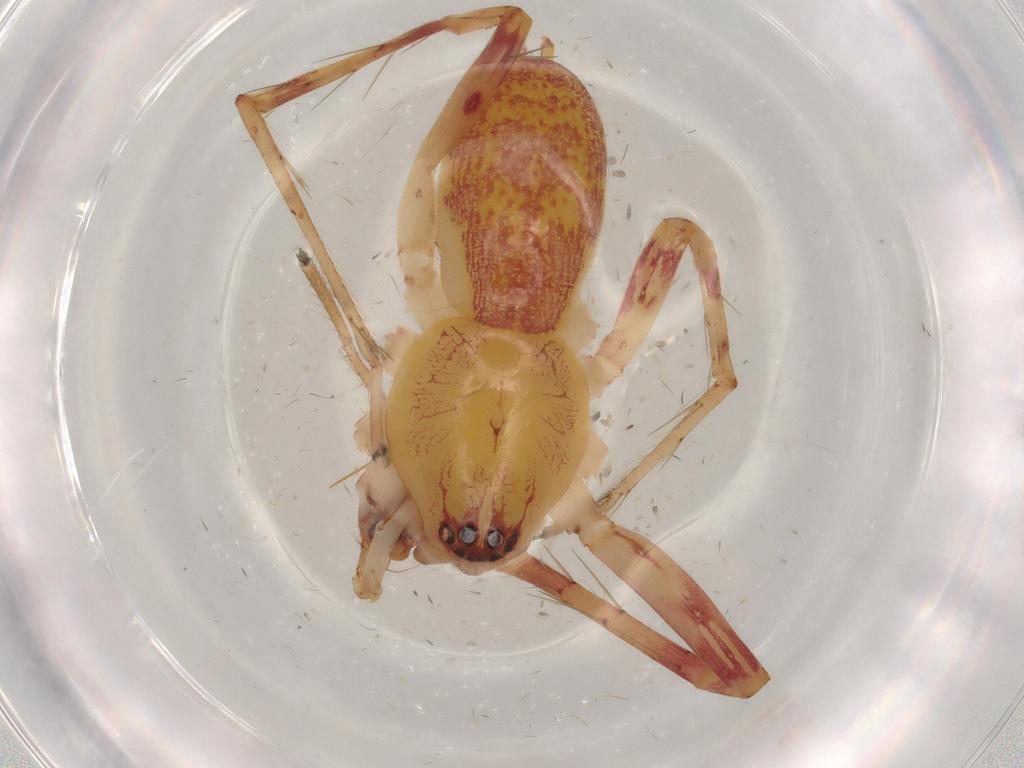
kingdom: Animalia
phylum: Arthropoda
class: Arachnida
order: Araneae
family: Anyphaenidae
